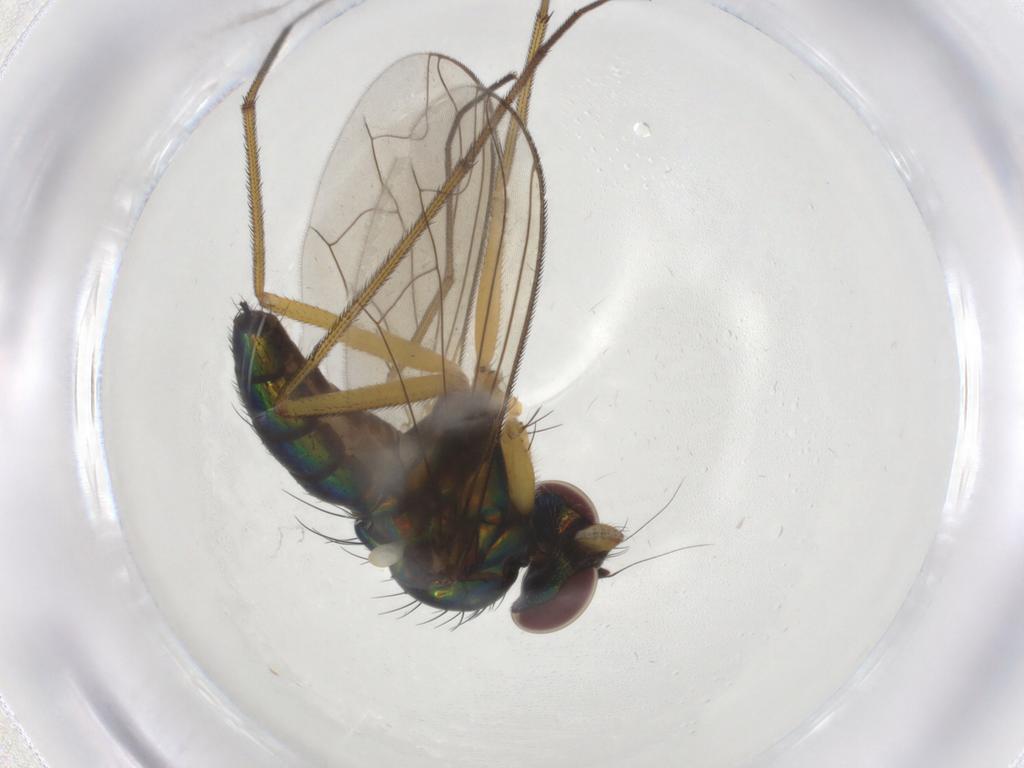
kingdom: Animalia
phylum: Arthropoda
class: Insecta
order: Diptera
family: Dolichopodidae
